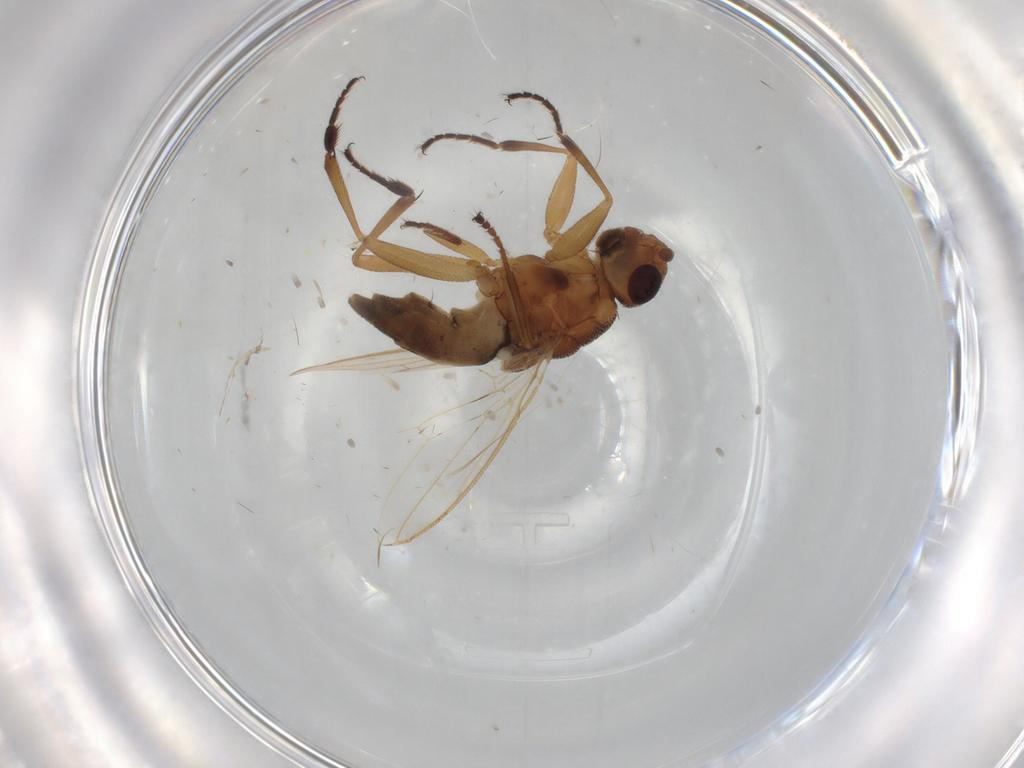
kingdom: Animalia
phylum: Arthropoda
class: Insecta
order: Diptera
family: Sphaeroceridae
